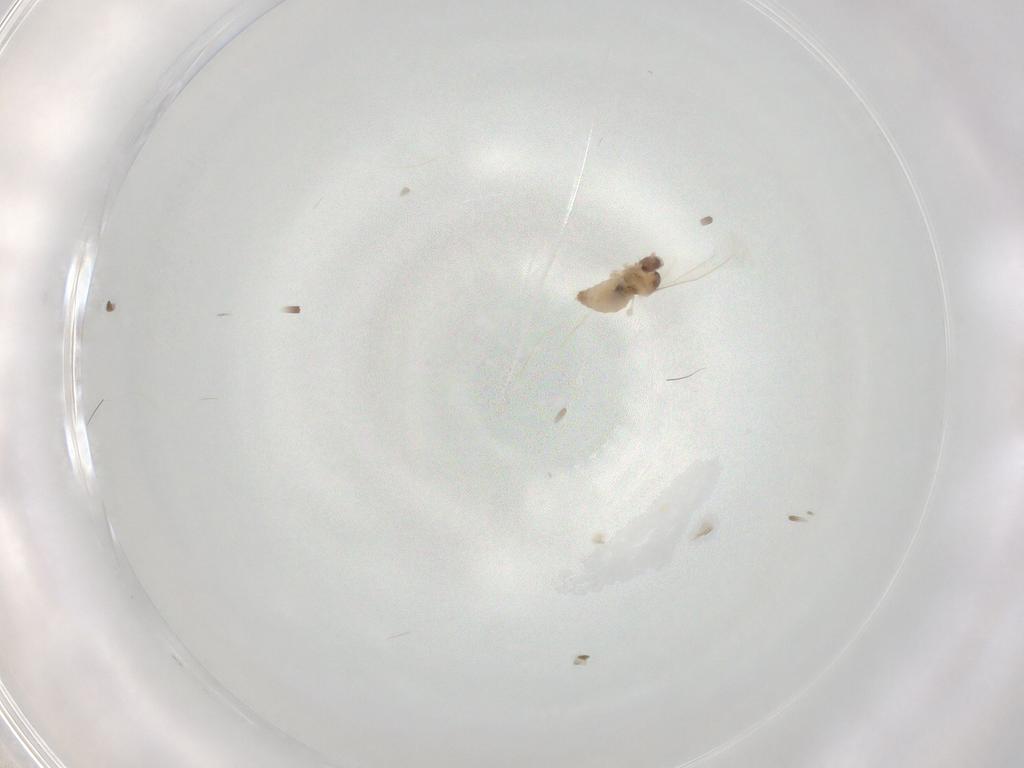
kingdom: Animalia
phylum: Arthropoda
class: Insecta
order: Diptera
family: Cecidomyiidae
